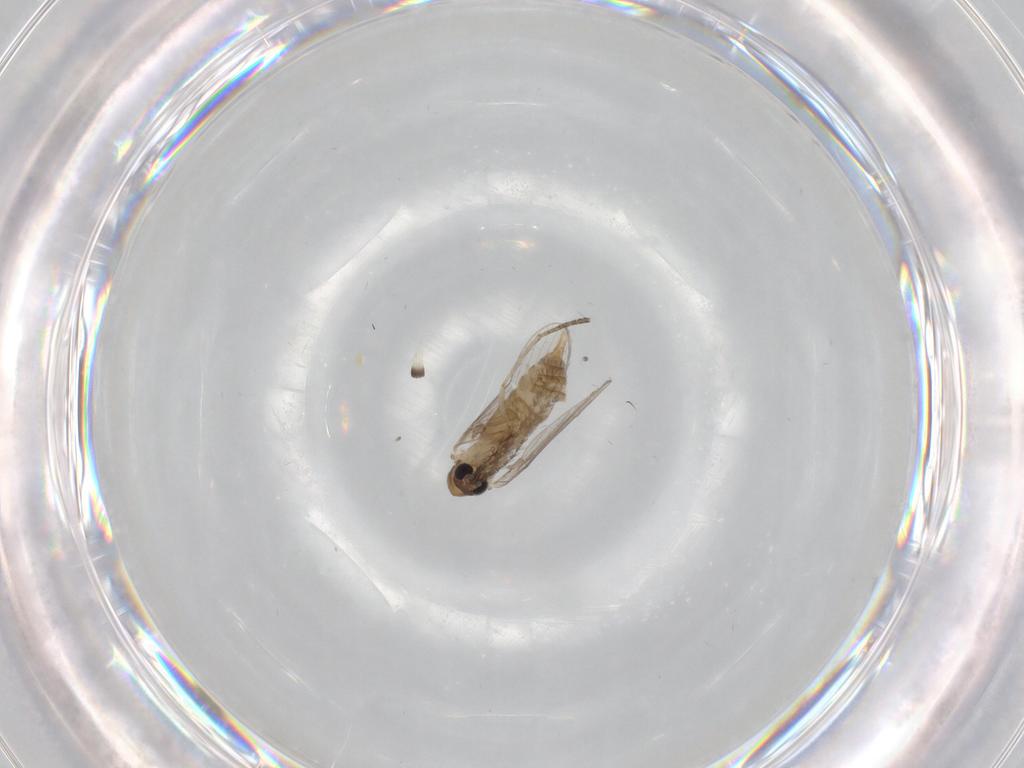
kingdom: Animalia
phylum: Arthropoda
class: Insecta
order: Diptera
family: Psychodidae
